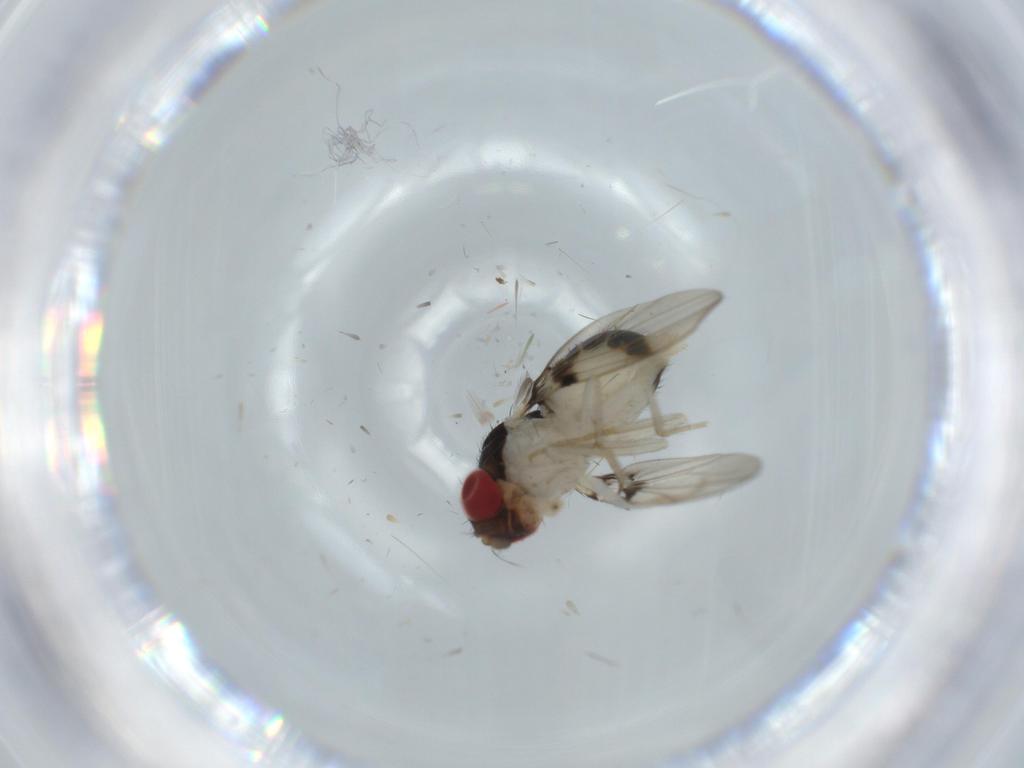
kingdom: Animalia
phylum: Arthropoda
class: Insecta
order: Diptera
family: Drosophilidae
